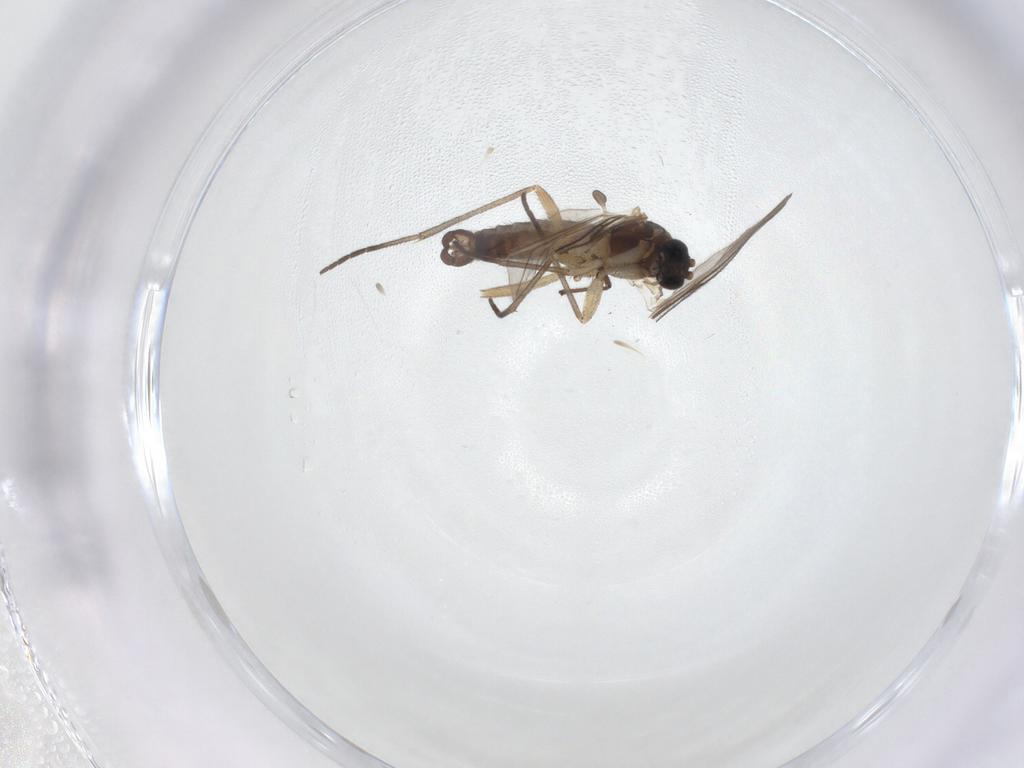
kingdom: Animalia
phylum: Arthropoda
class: Insecta
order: Diptera
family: Sciaridae
